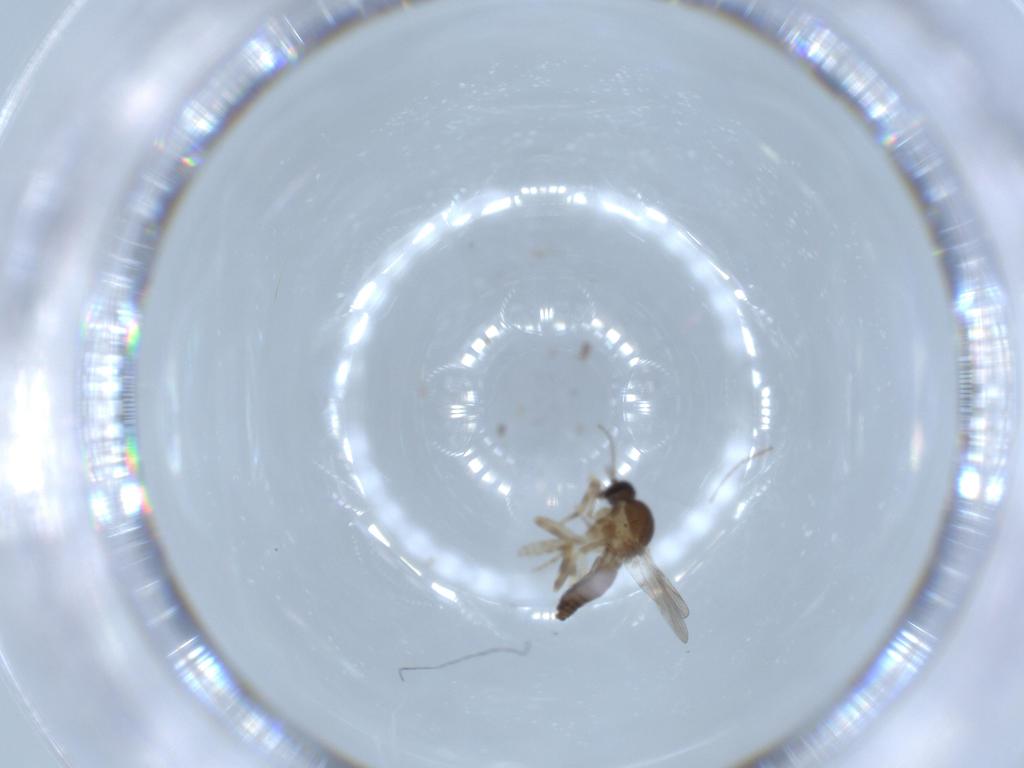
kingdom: Animalia
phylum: Arthropoda
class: Insecta
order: Diptera
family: Ceratopogonidae
